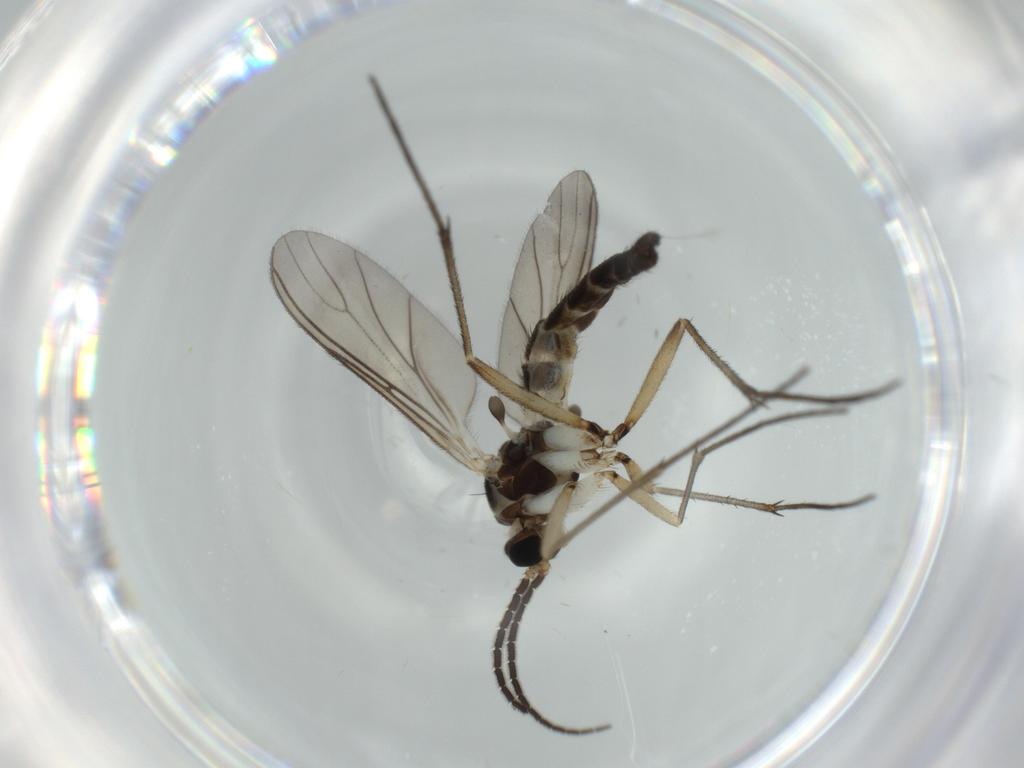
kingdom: Animalia
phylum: Arthropoda
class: Insecta
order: Diptera
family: Sciaridae
